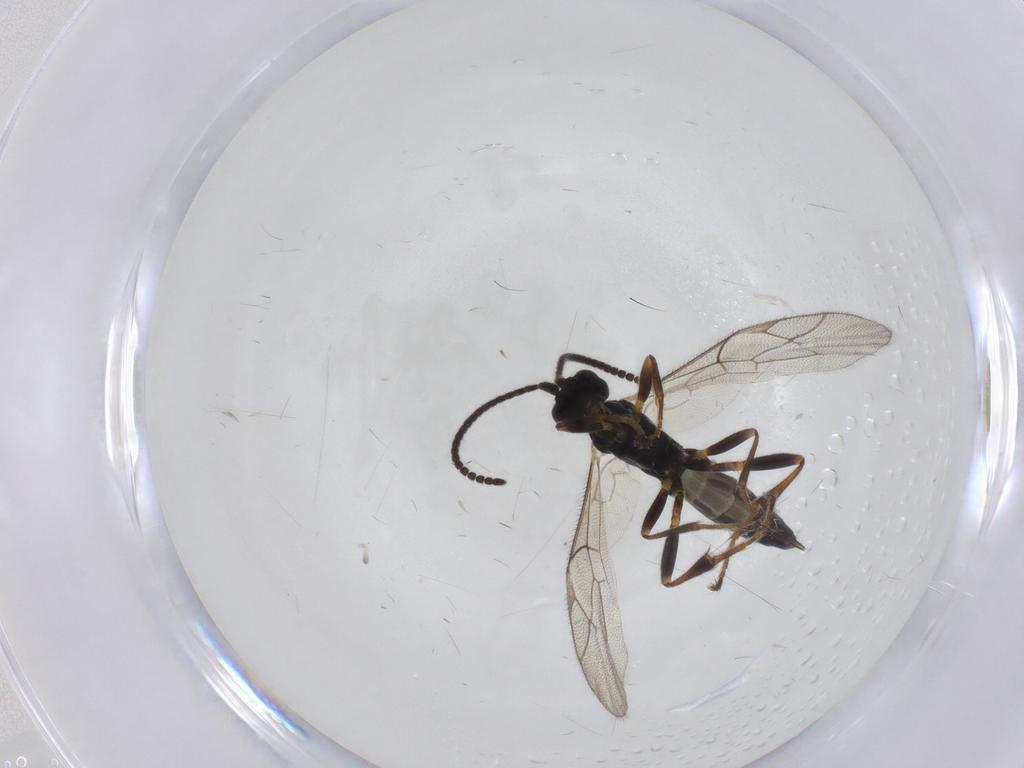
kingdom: Animalia
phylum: Arthropoda
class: Insecta
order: Hymenoptera
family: Ichneumonidae
